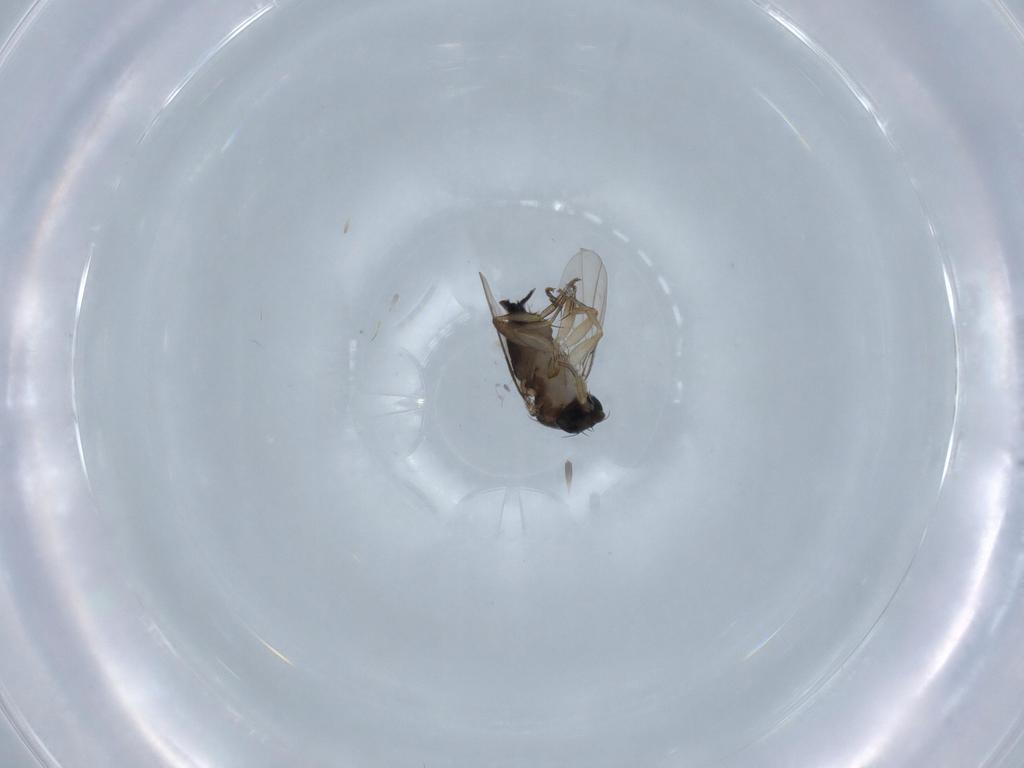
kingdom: Animalia
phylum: Arthropoda
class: Insecta
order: Diptera
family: Phoridae
